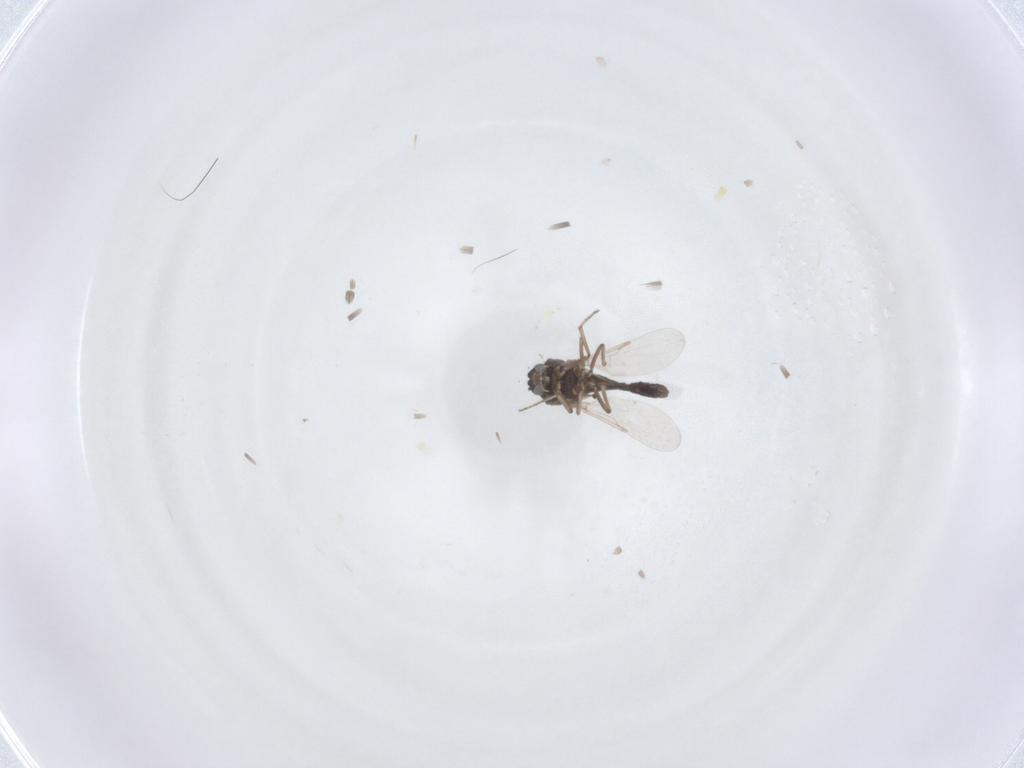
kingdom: Animalia
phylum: Arthropoda
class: Insecta
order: Diptera
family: Ceratopogonidae
